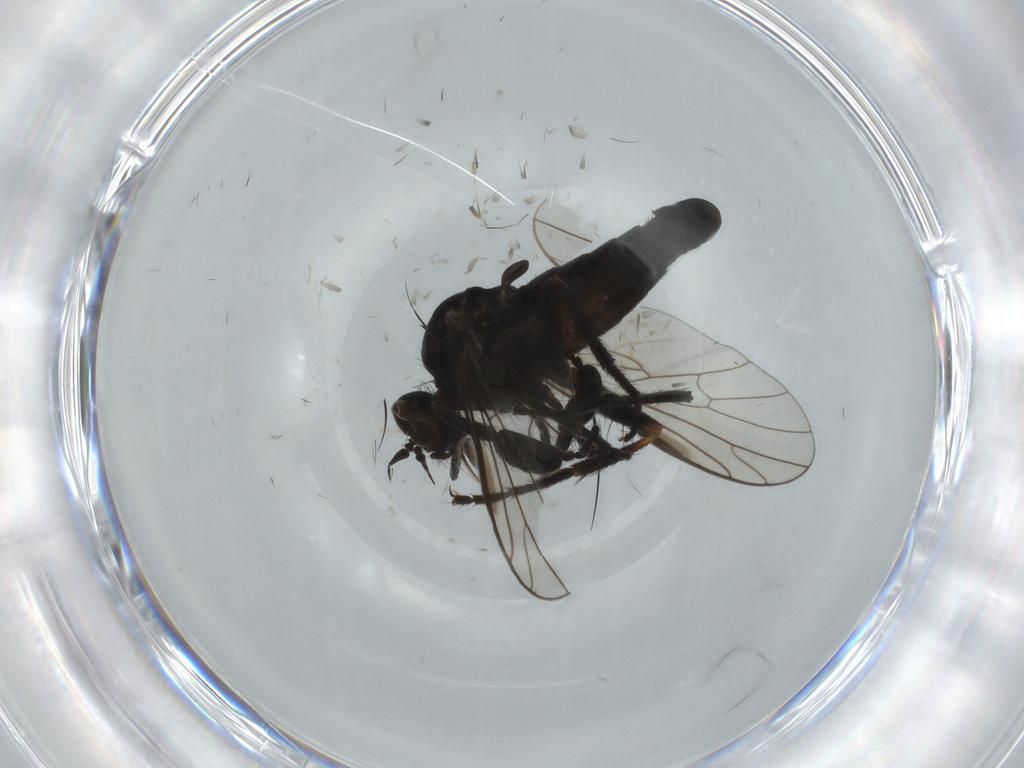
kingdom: Animalia
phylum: Arthropoda
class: Insecta
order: Diptera
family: Empididae
